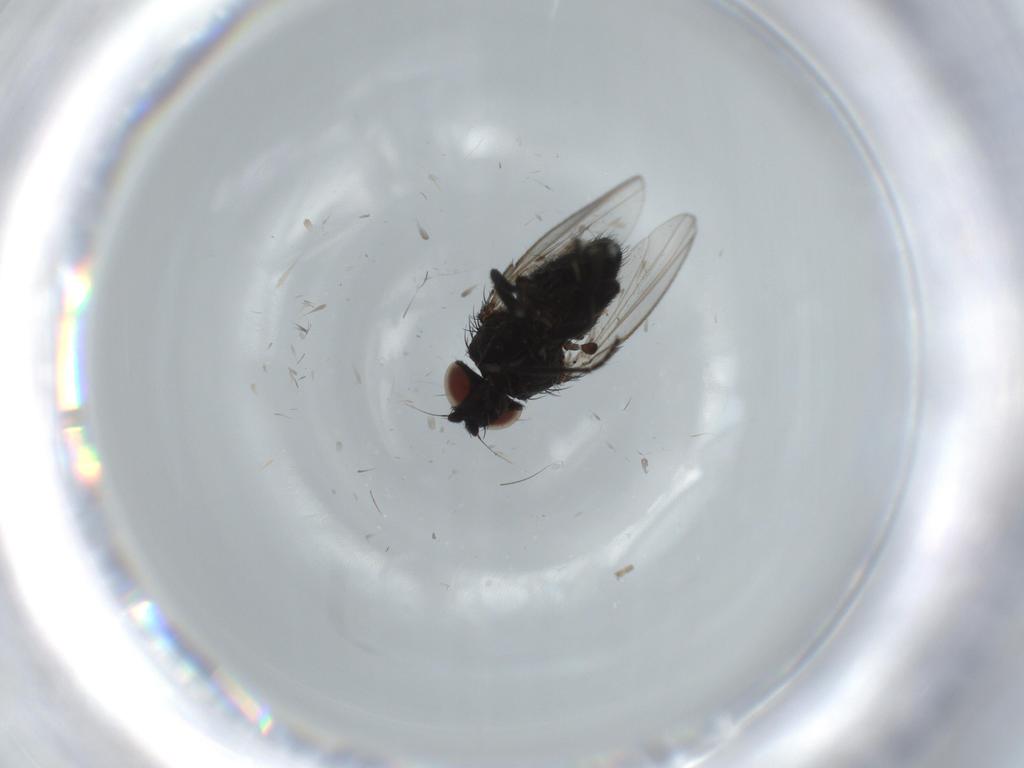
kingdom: Animalia
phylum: Arthropoda
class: Insecta
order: Diptera
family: Milichiidae
